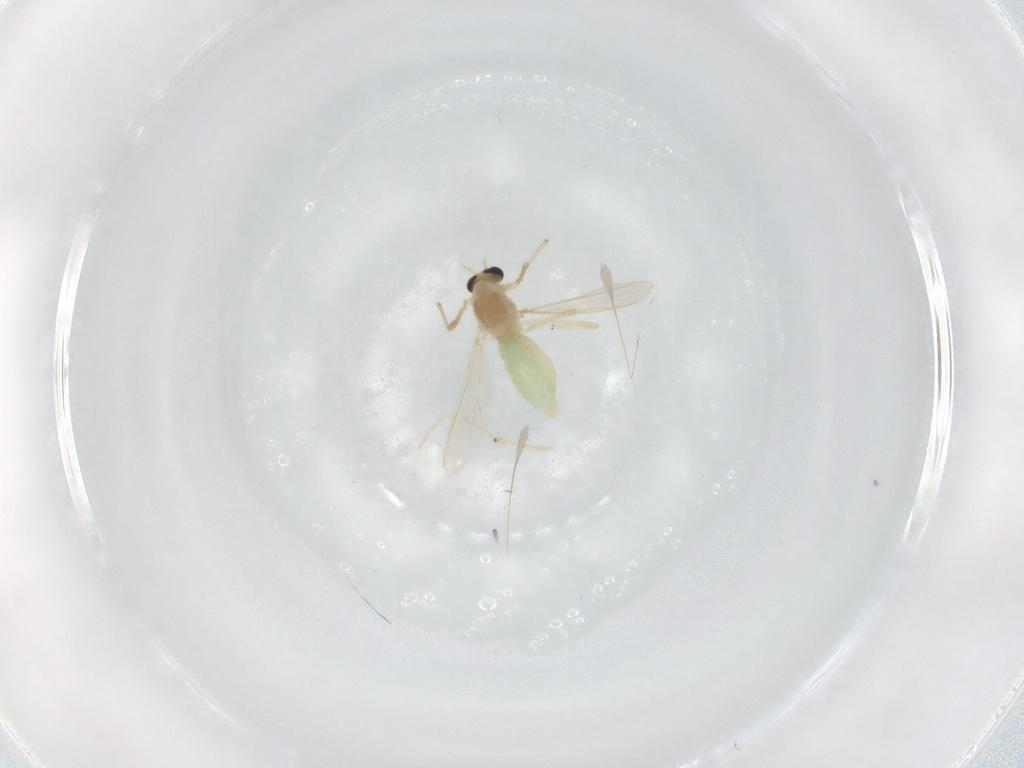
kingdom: Animalia
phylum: Arthropoda
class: Insecta
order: Diptera
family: Chironomidae
